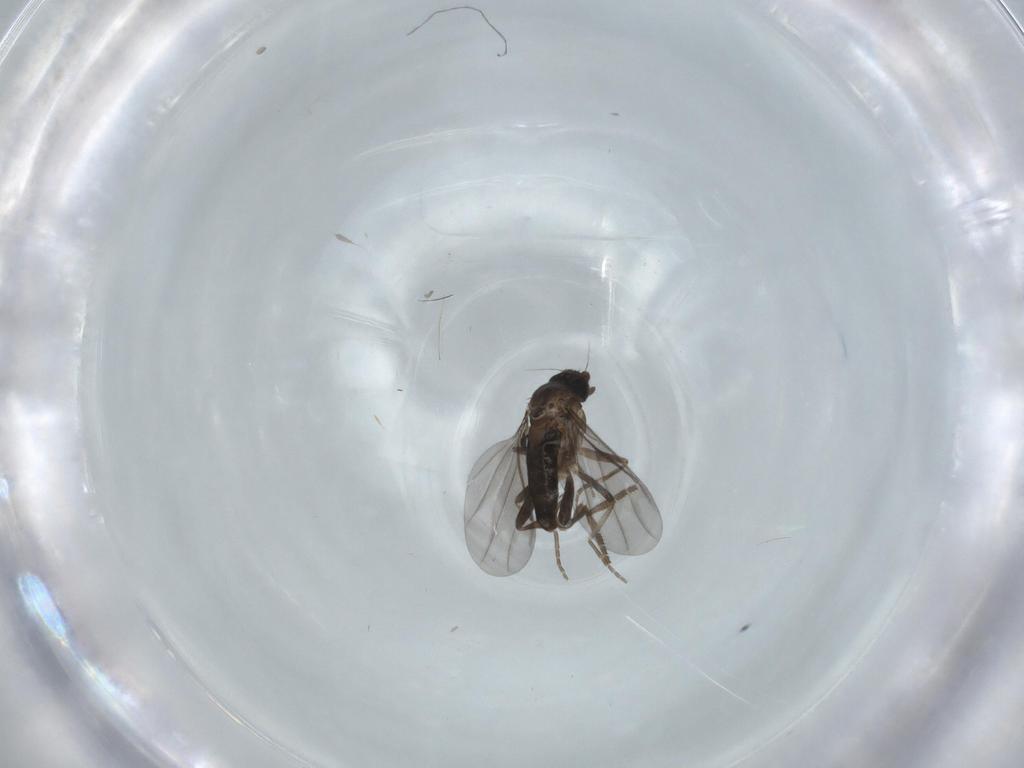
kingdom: Animalia
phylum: Arthropoda
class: Insecta
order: Diptera
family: Phoridae
